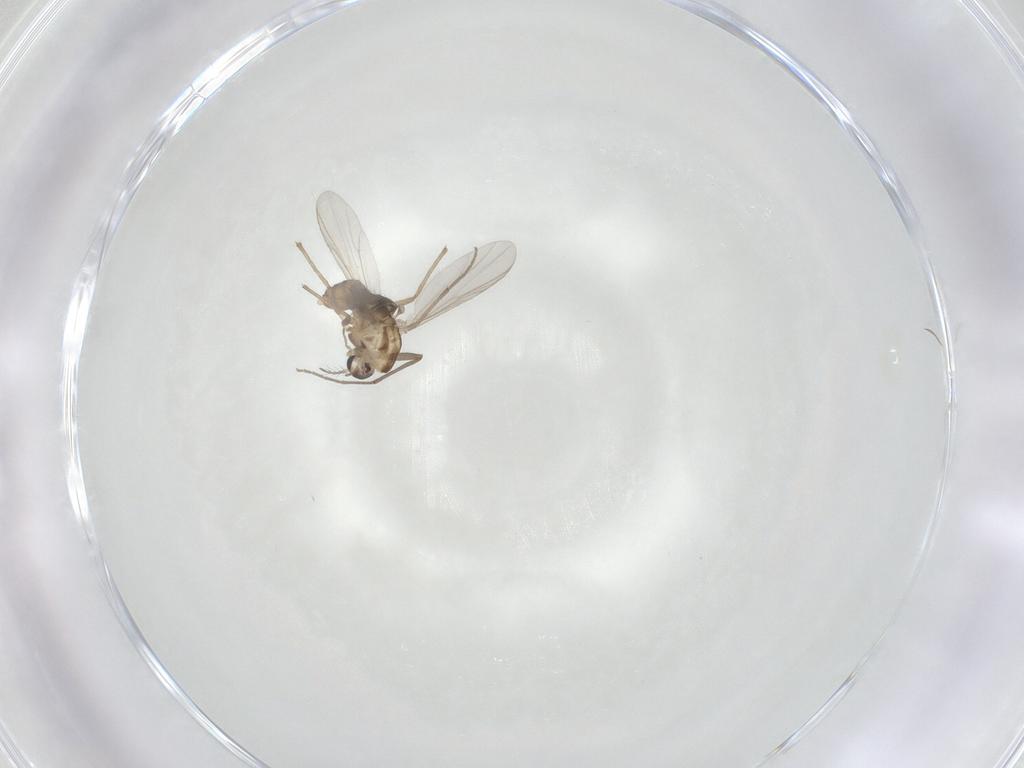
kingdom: Animalia
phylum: Arthropoda
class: Insecta
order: Diptera
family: Chironomidae
